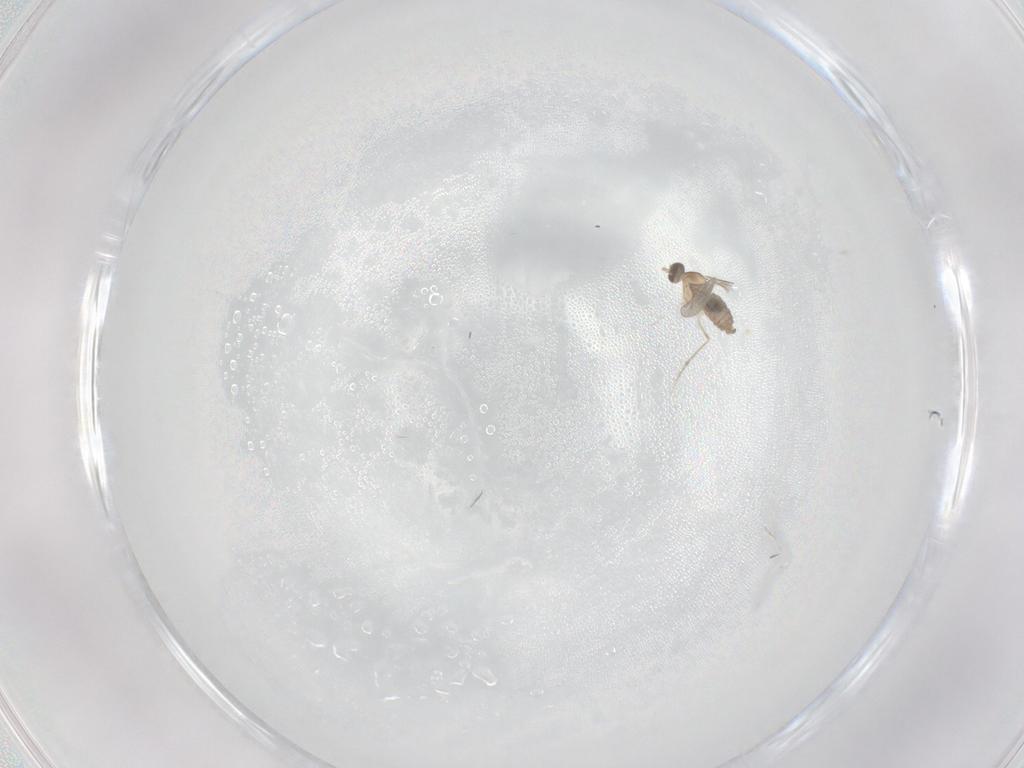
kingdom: Animalia
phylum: Arthropoda
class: Insecta
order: Diptera
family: Cecidomyiidae
